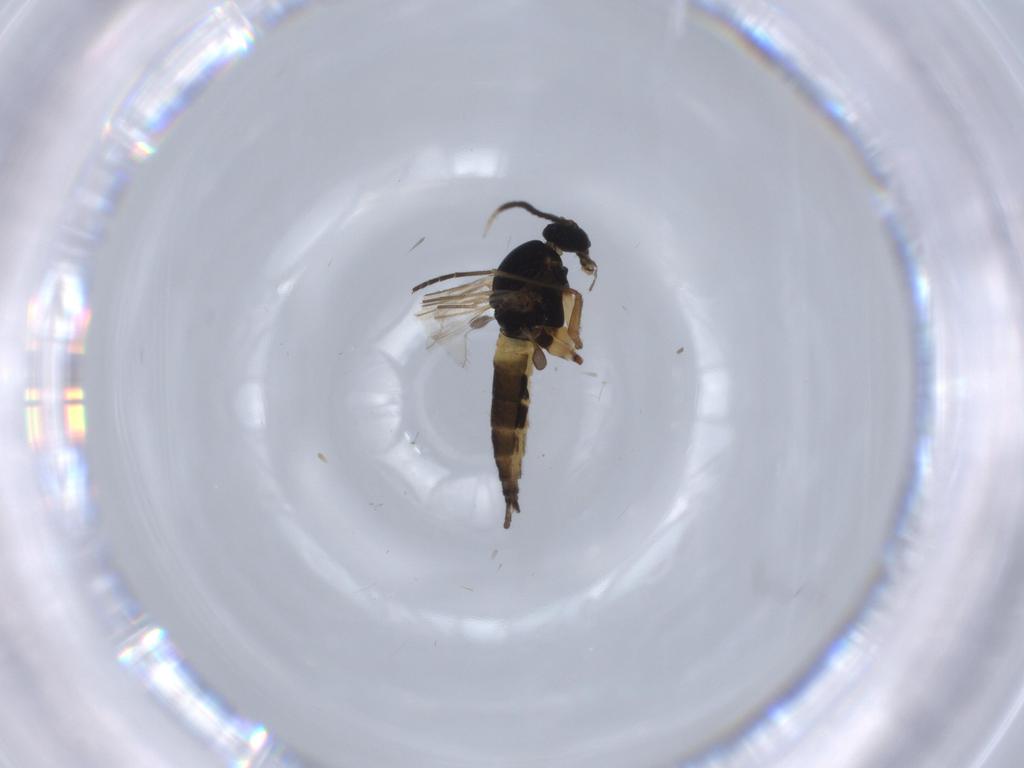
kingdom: Animalia
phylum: Arthropoda
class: Insecta
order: Diptera
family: Sciaridae
